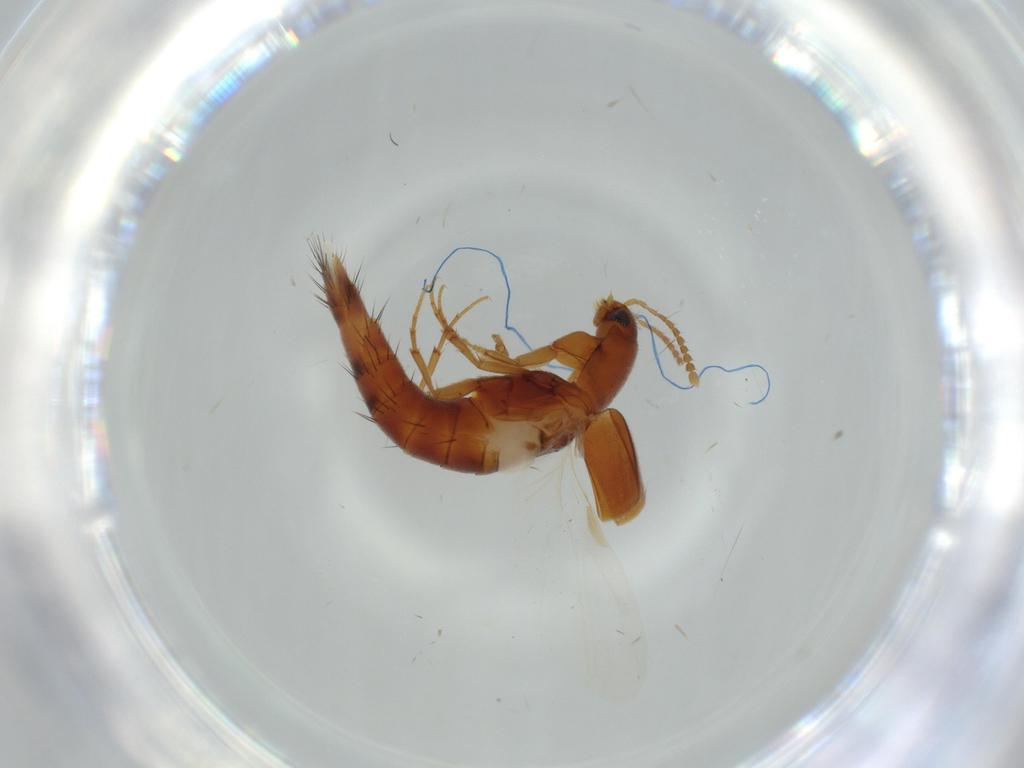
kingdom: Animalia
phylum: Arthropoda
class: Insecta
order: Coleoptera
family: Staphylinidae
